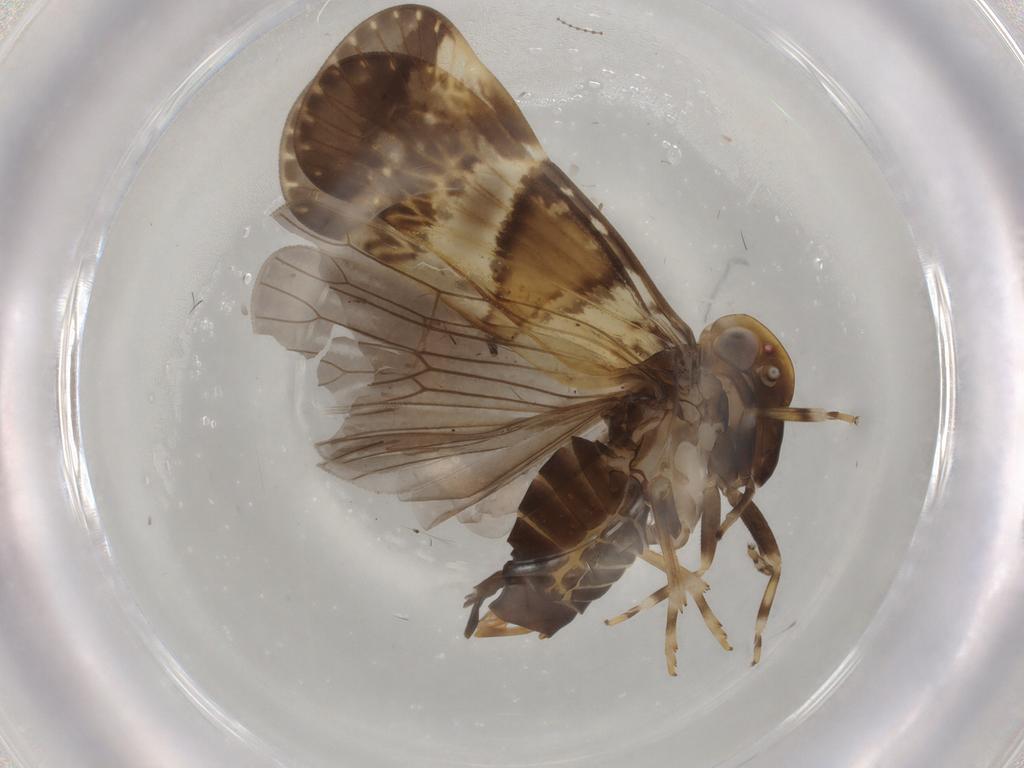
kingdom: Animalia
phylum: Arthropoda
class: Insecta
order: Hemiptera
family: Cixiidae
